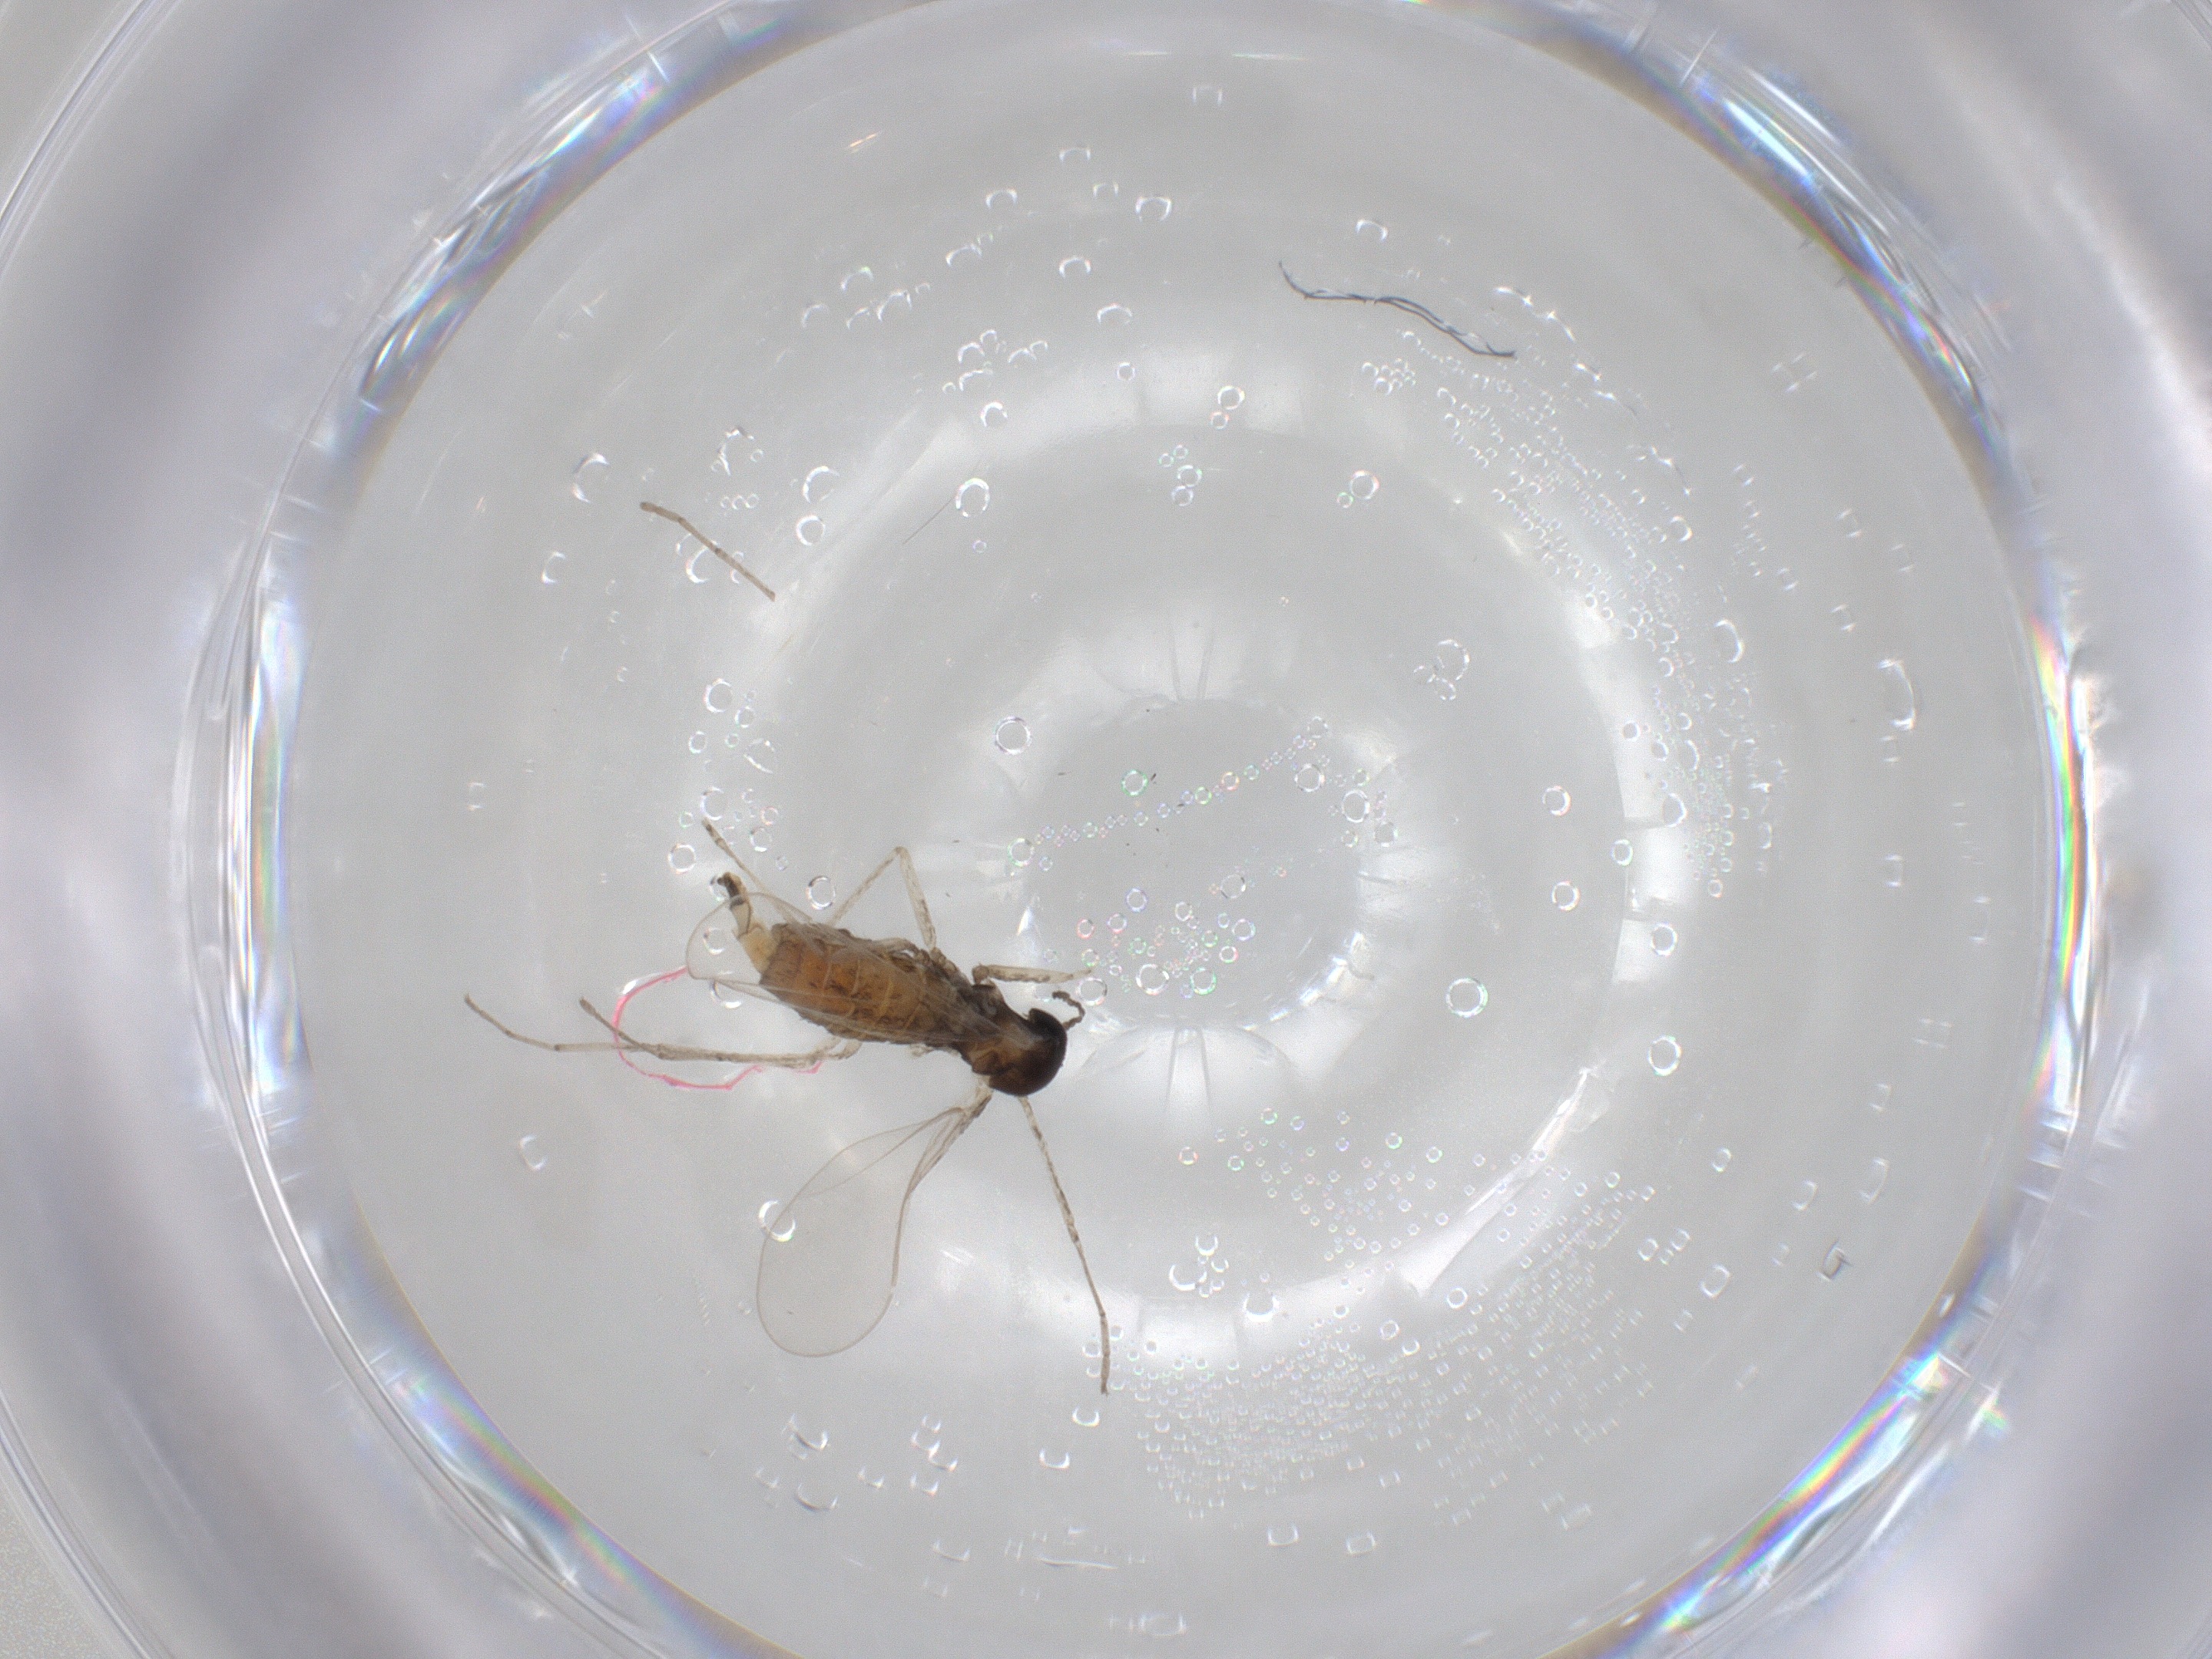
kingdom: Animalia
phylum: Arthropoda
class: Insecta
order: Diptera
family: Cecidomyiidae
